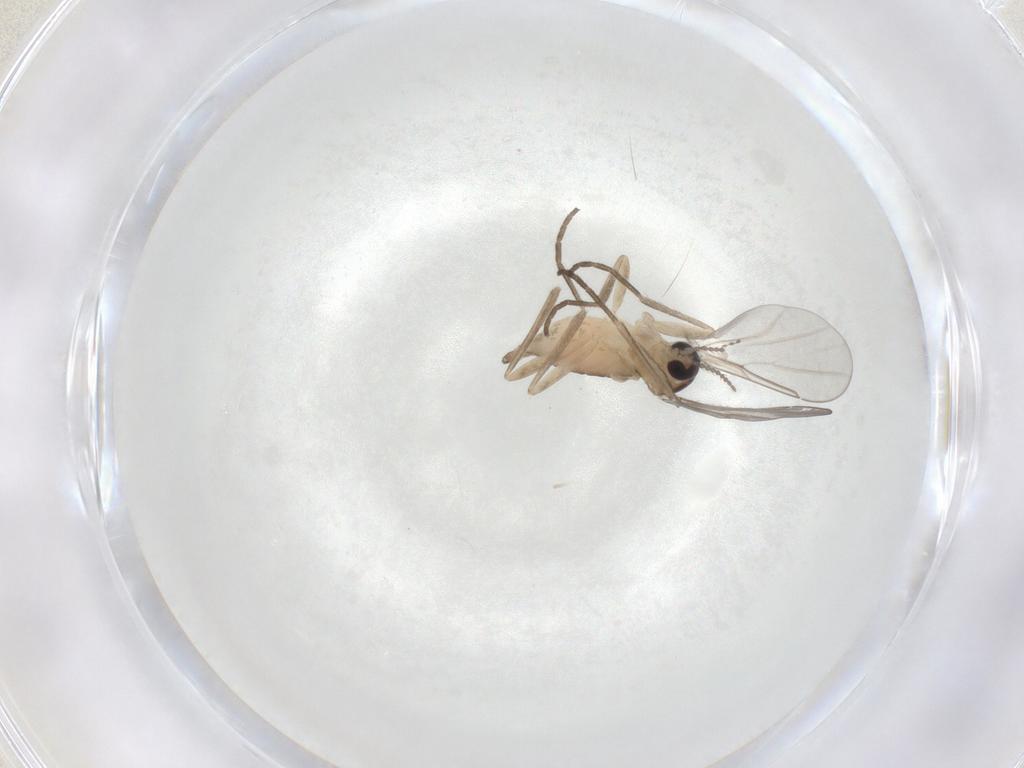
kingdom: Animalia
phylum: Arthropoda
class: Insecta
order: Diptera
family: Ceratopogonidae
